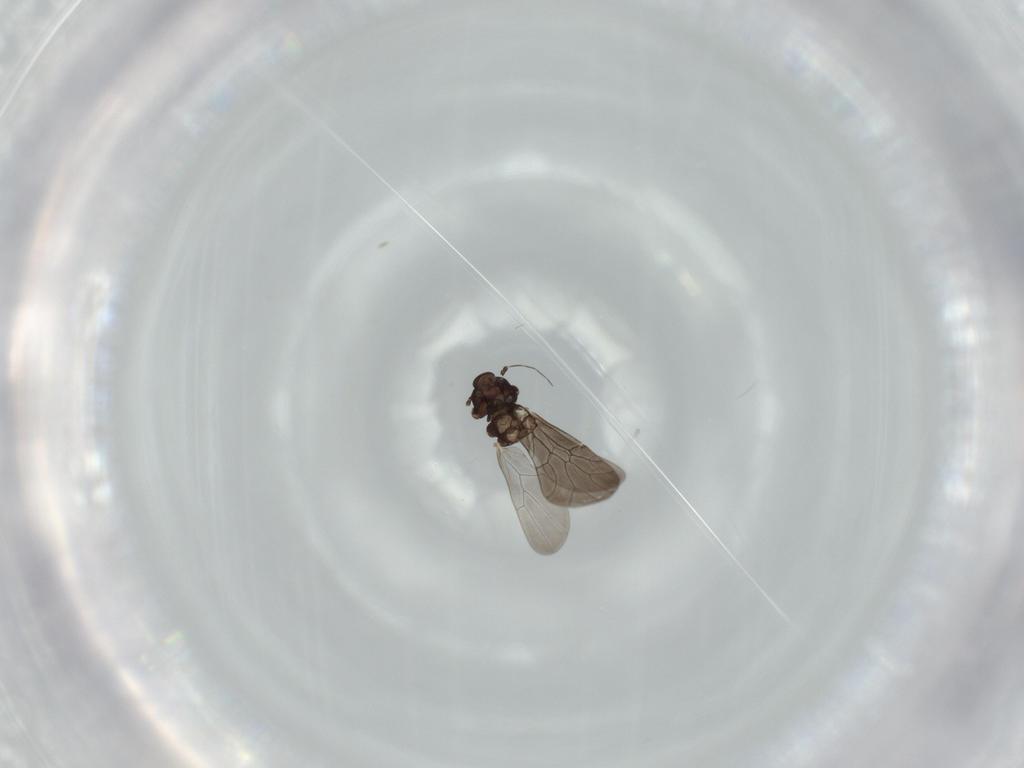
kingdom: Animalia
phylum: Arthropoda
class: Insecta
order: Psocodea
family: Lepidopsocidae
